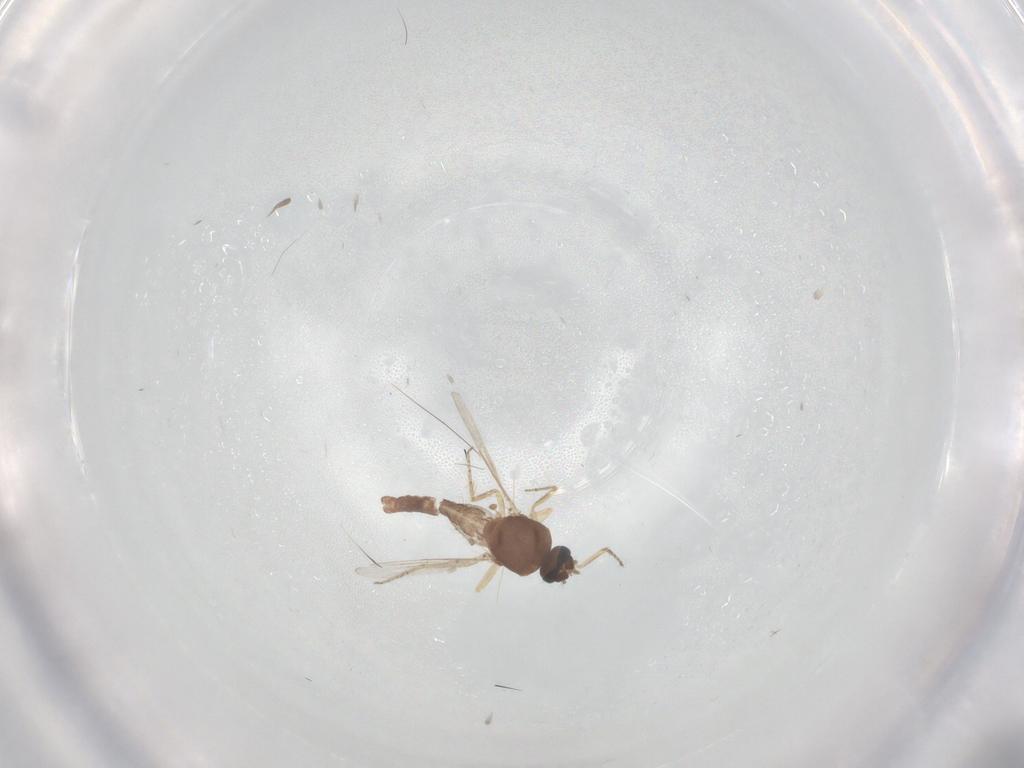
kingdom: Animalia
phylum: Arthropoda
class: Insecta
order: Diptera
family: Ceratopogonidae
